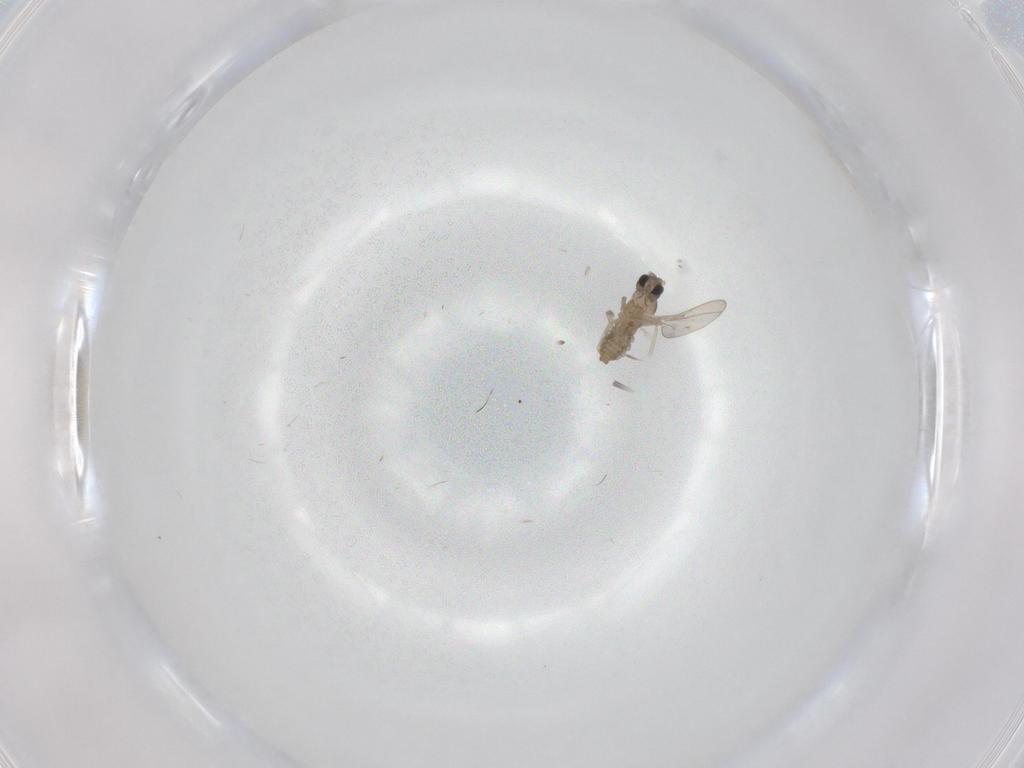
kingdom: Animalia
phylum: Arthropoda
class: Insecta
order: Diptera
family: Cecidomyiidae
